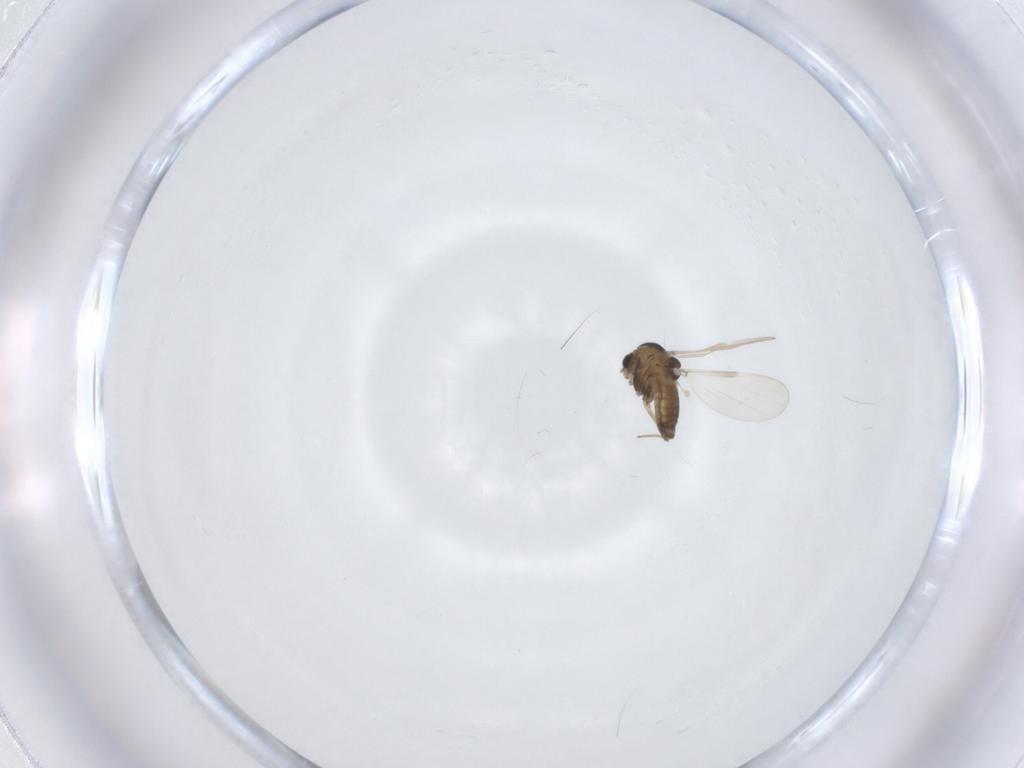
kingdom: Animalia
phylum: Arthropoda
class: Insecta
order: Diptera
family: Chironomidae
